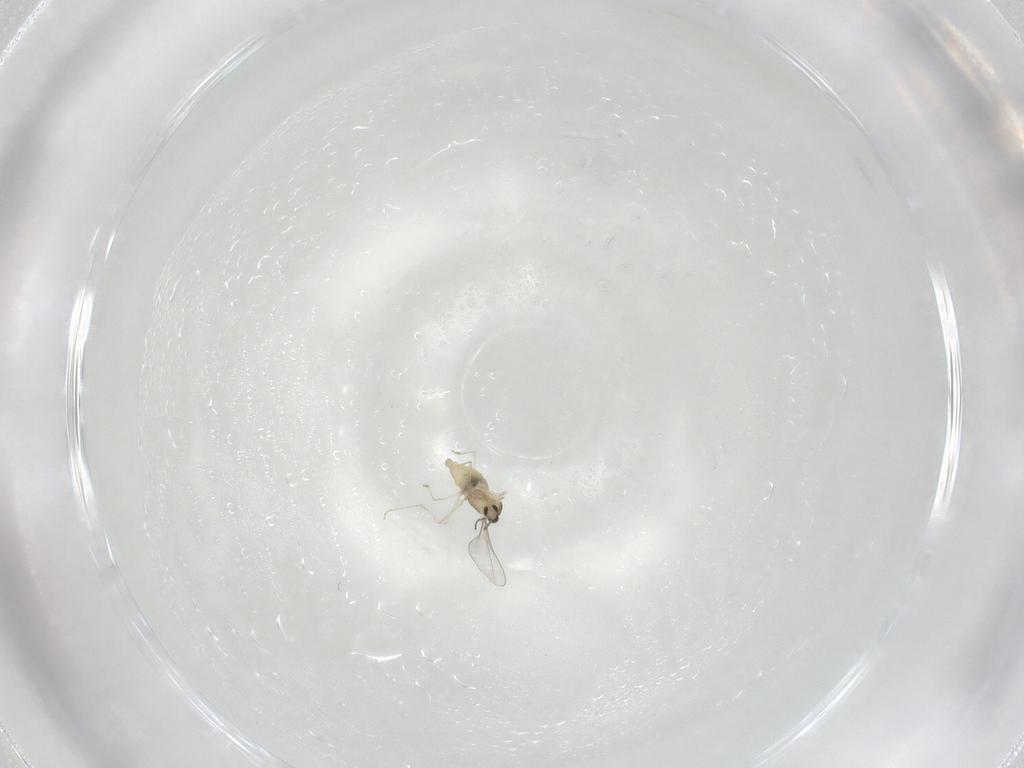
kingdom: Animalia
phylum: Arthropoda
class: Insecta
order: Diptera
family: Cecidomyiidae
